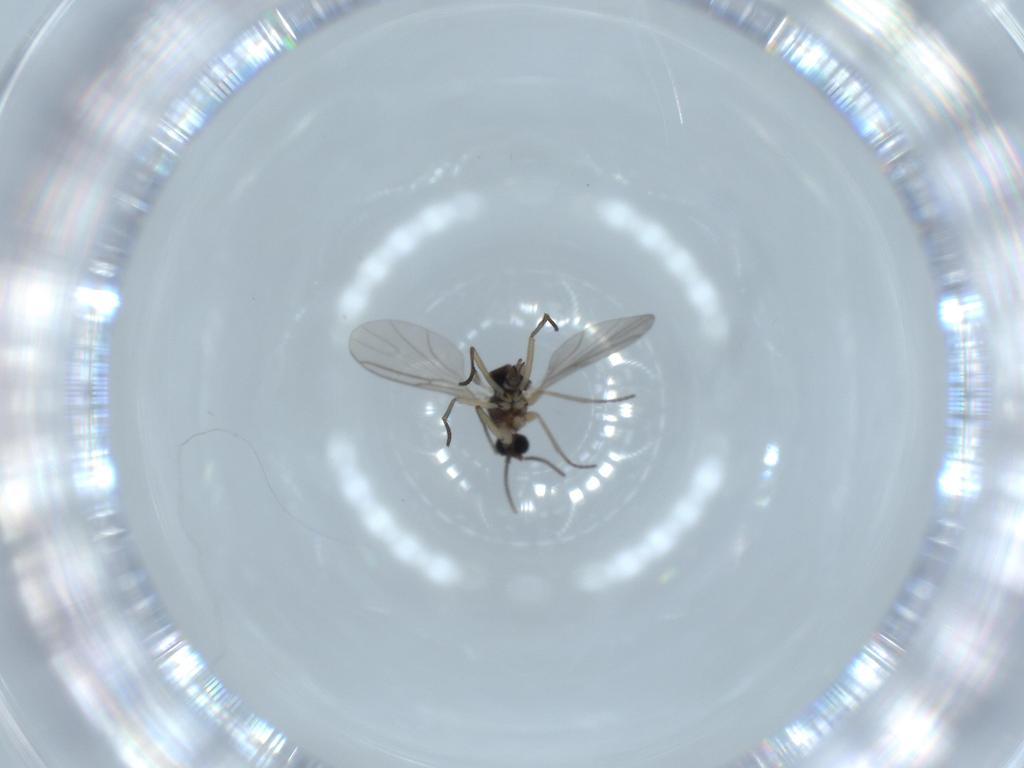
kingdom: Animalia
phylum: Arthropoda
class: Insecta
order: Diptera
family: Sciaridae
